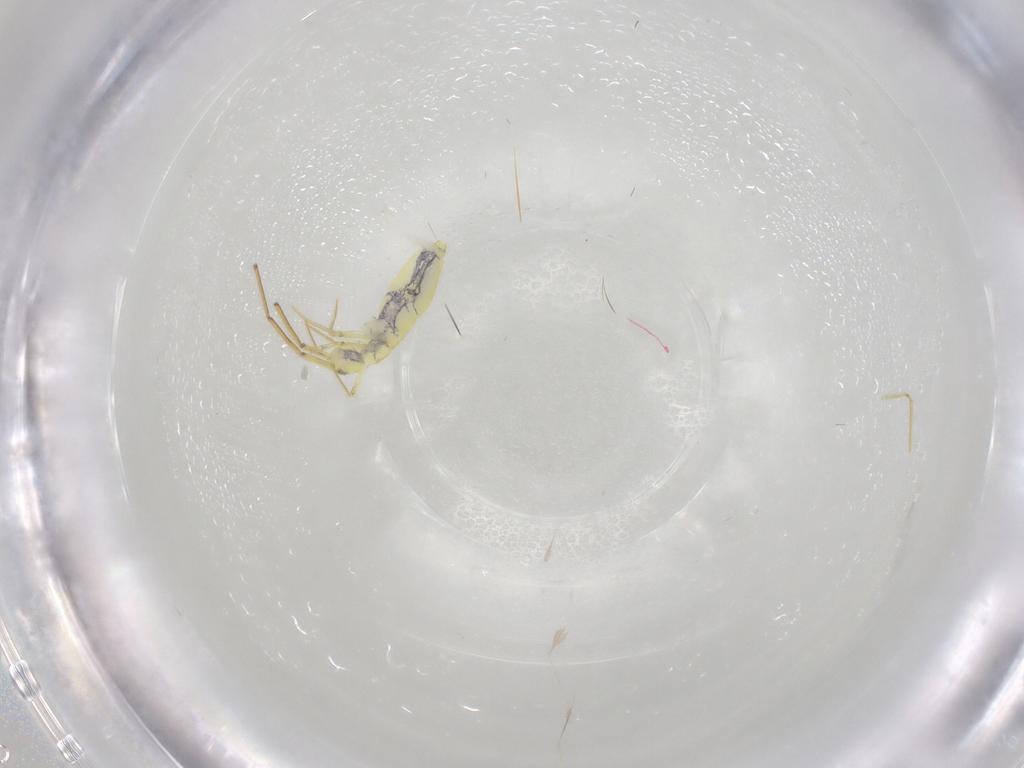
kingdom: Animalia
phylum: Arthropoda
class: Collembola
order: Entomobryomorpha
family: Entomobryidae
